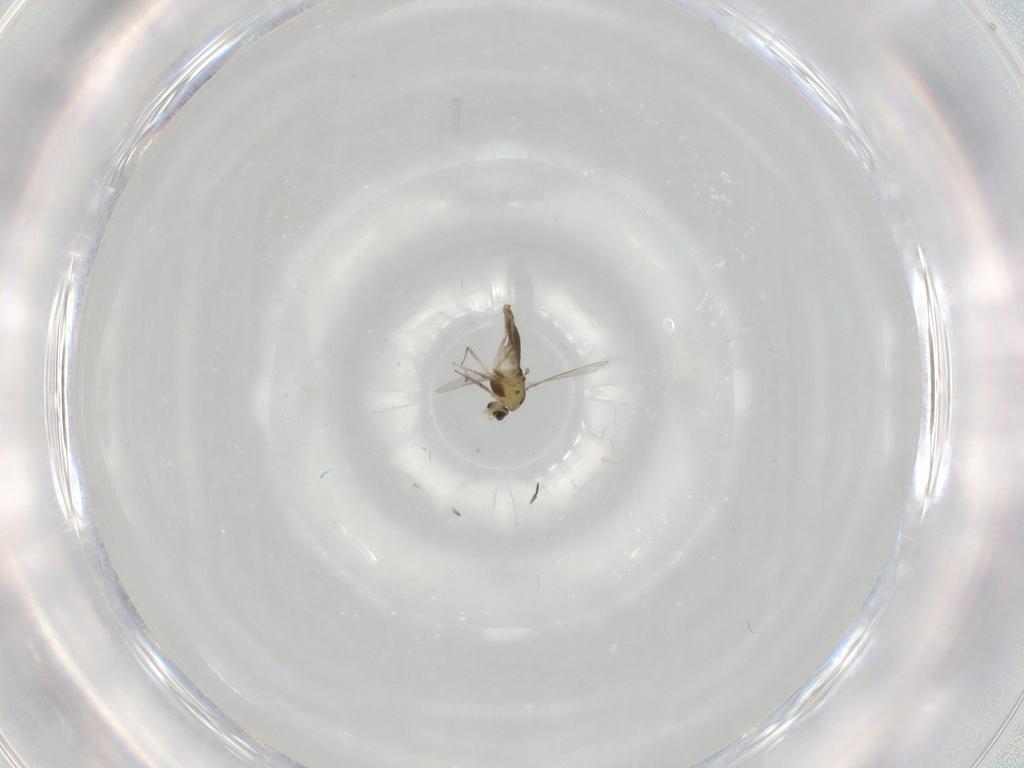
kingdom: Animalia
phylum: Arthropoda
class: Insecta
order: Diptera
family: Chironomidae
